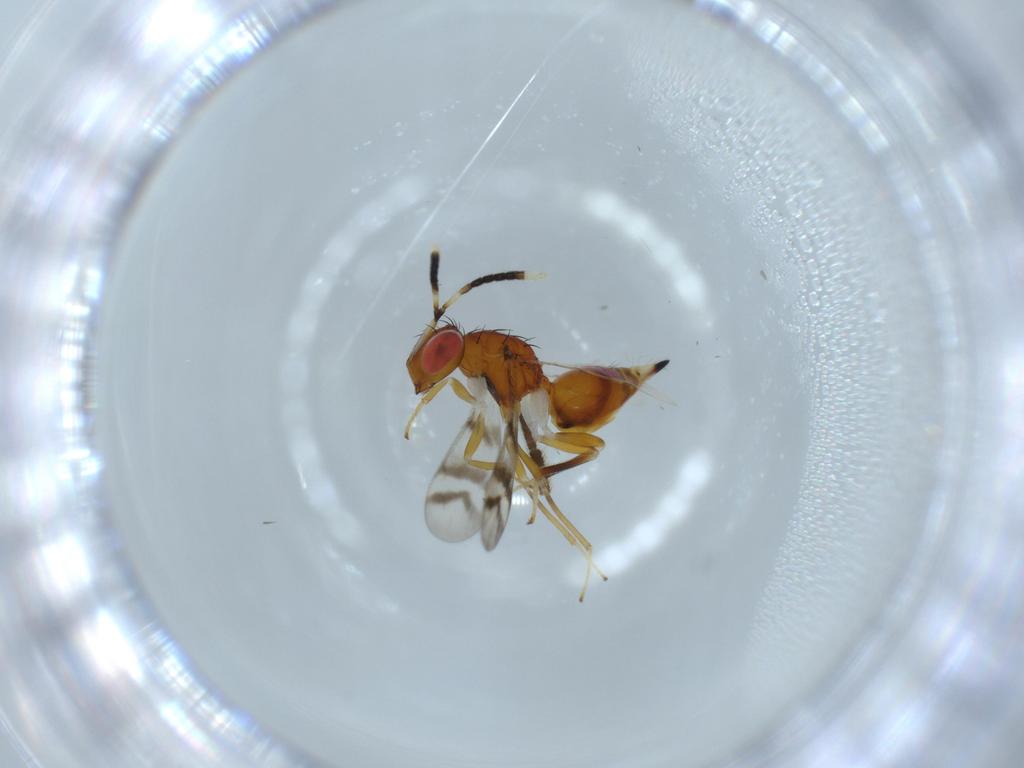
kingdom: Animalia
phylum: Arthropoda
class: Insecta
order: Hymenoptera
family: Diparidae
